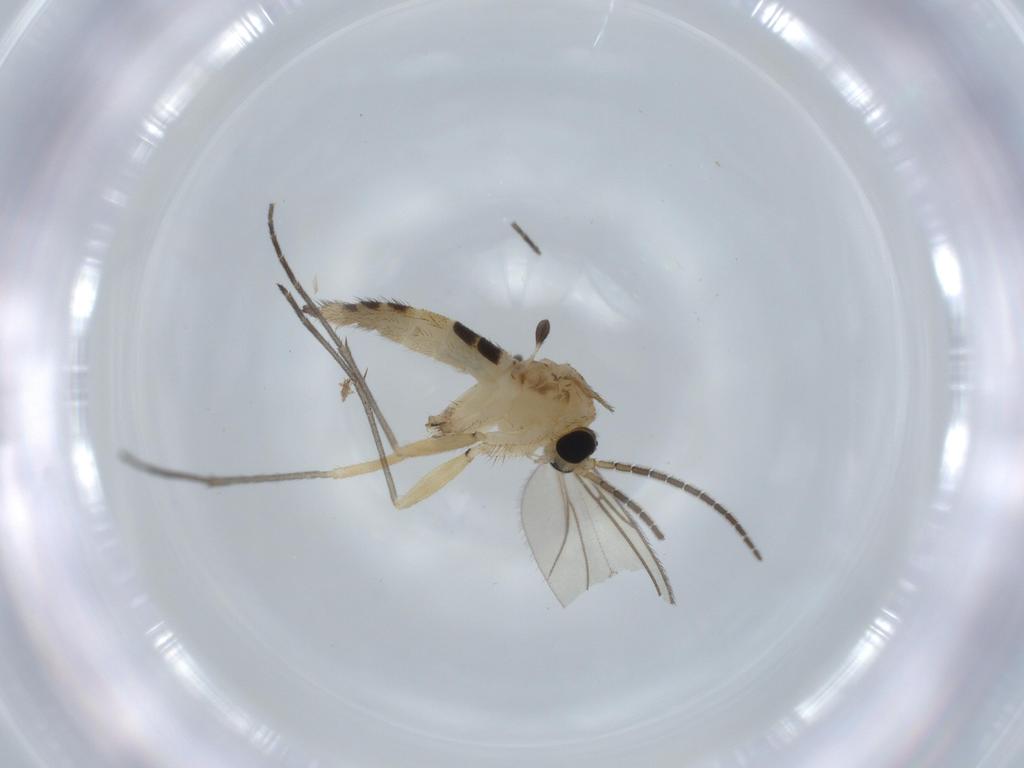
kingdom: Animalia
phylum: Arthropoda
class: Insecta
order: Diptera
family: Sciaridae
